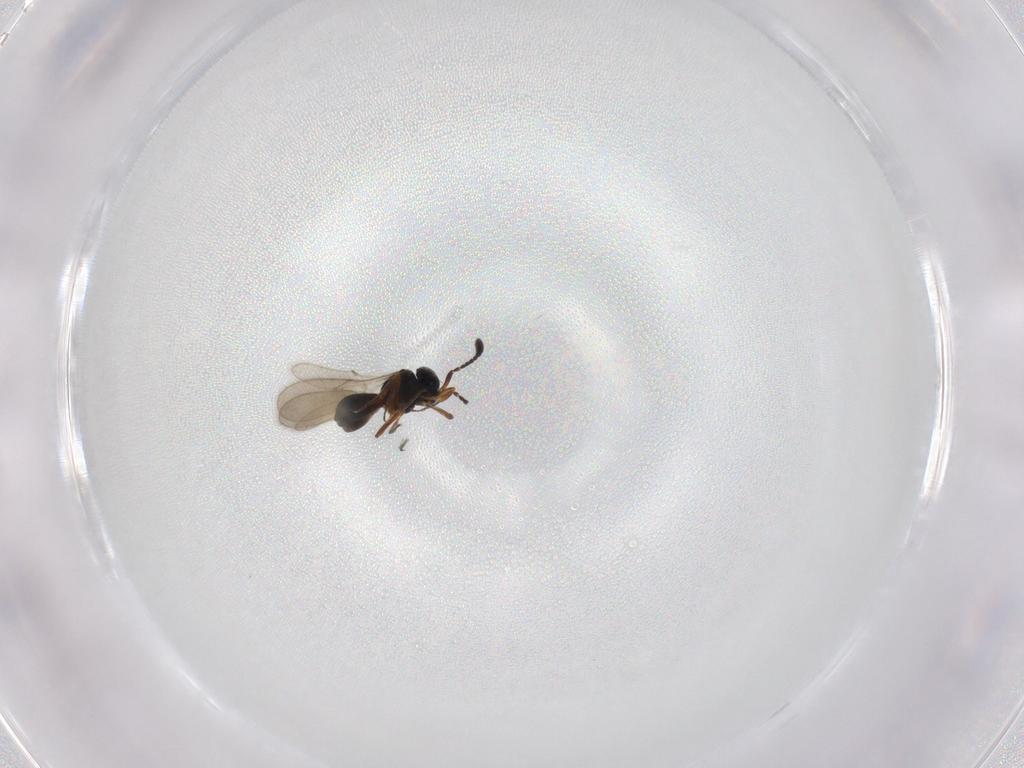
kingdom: Animalia
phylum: Arthropoda
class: Insecta
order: Hymenoptera
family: Scelionidae
